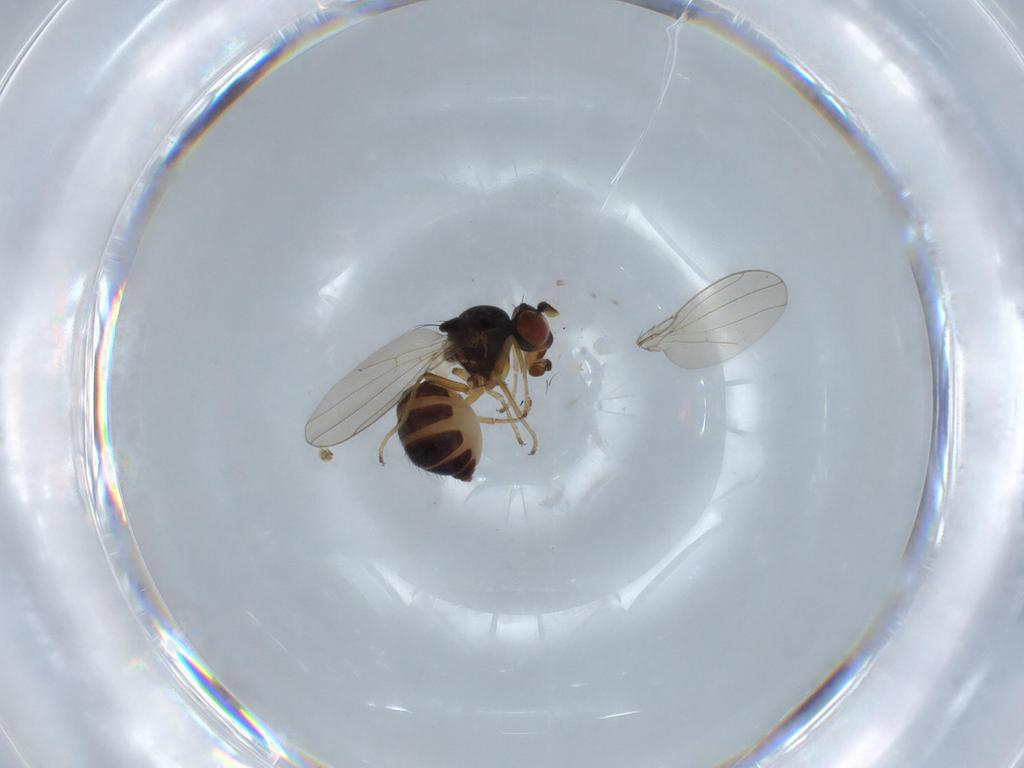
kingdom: Animalia
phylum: Arthropoda
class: Insecta
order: Diptera
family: Ephydridae
